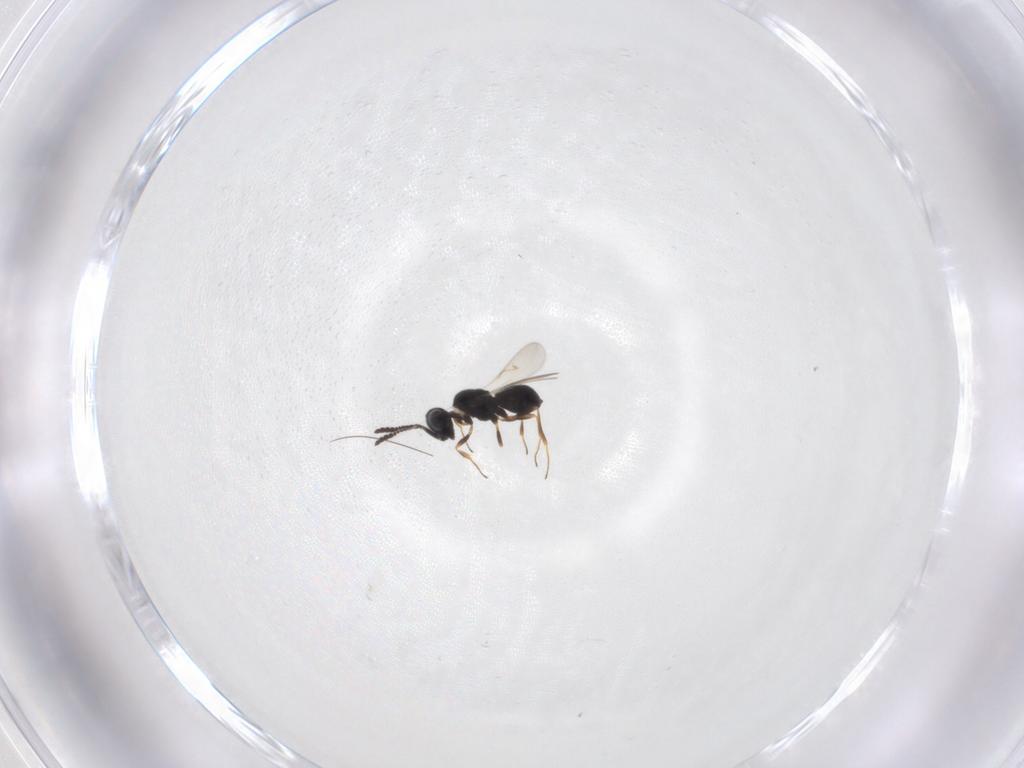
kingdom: Animalia
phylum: Arthropoda
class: Insecta
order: Hymenoptera
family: Scelionidae
